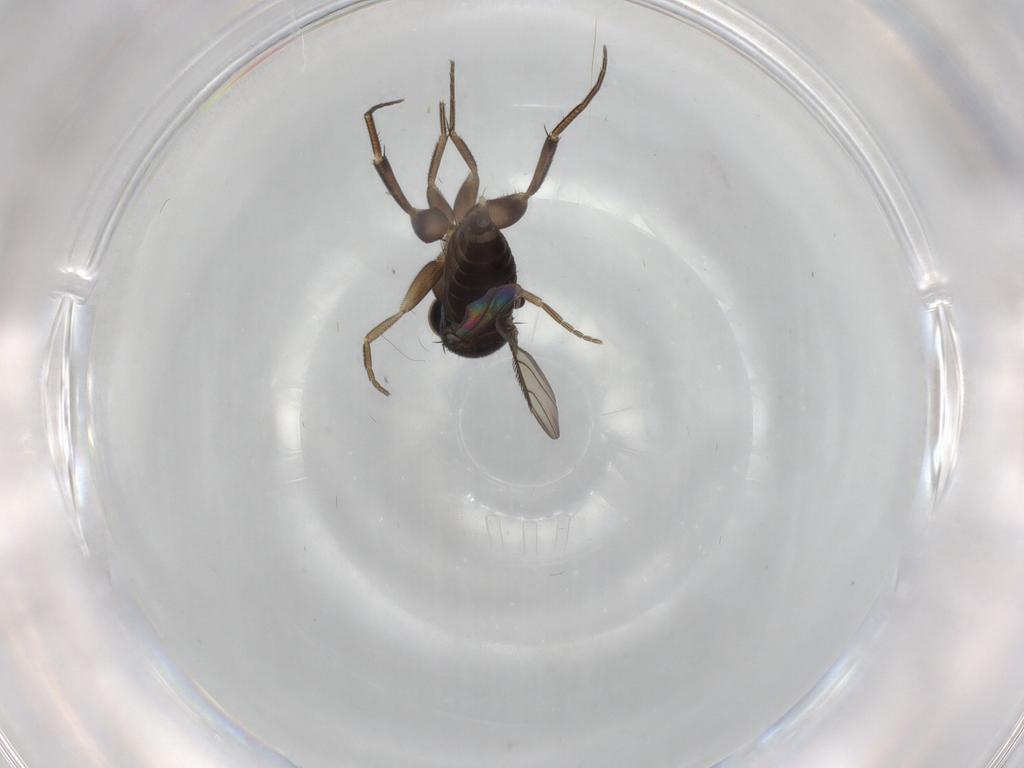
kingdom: Animalia
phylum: Arthropoda
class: Insecta
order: Diptera
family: Phoridae
